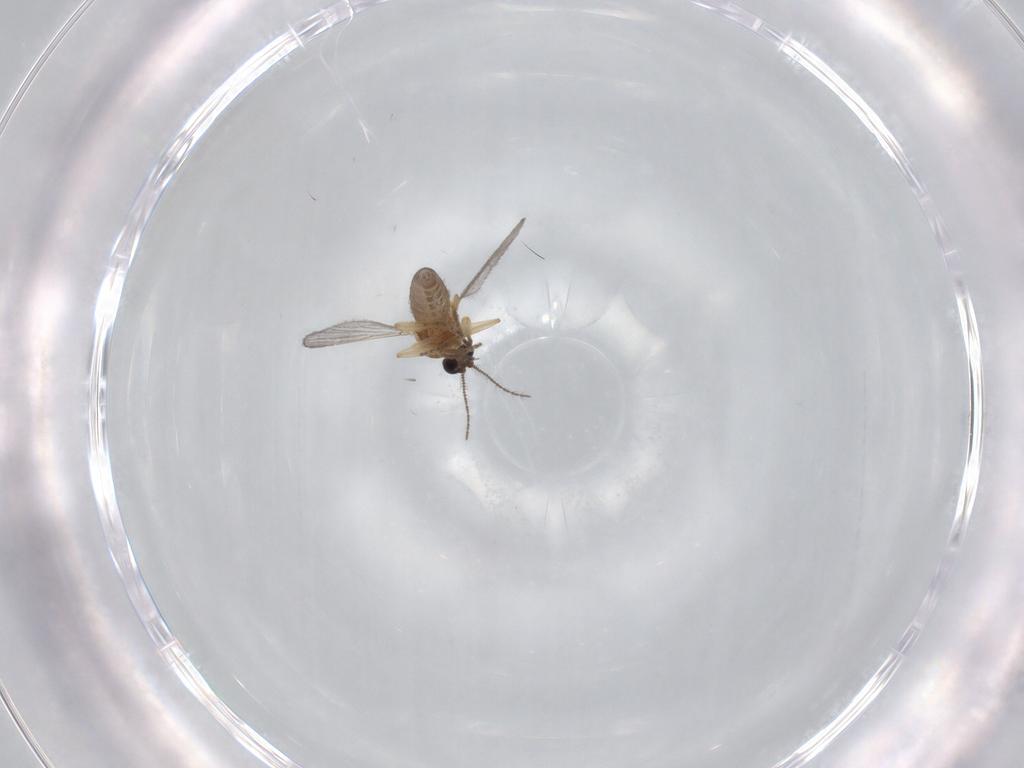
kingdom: Animalia
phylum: Arthropoda
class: Insecta
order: Diptera
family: Ceratopogonidae
